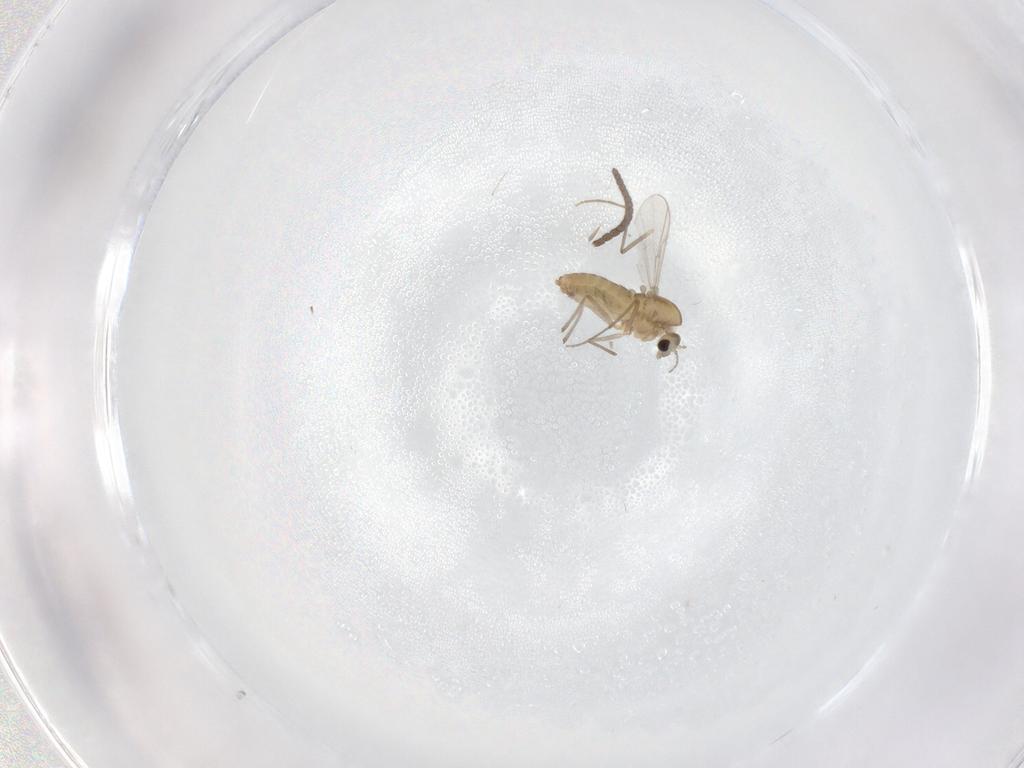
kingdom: Animalia
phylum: Arthropoda
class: Insecta
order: Diptera
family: Chironomidae
